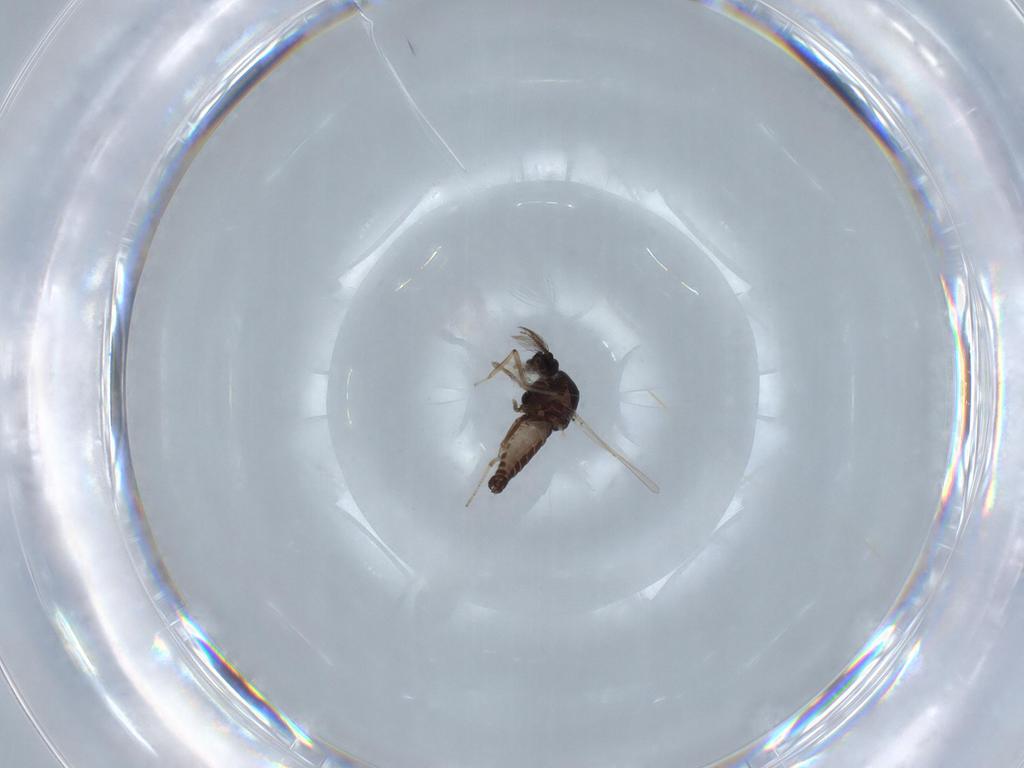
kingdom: Animalia
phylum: Arthropoda
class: Insecta
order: Diptera
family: Ceratopogonidae
